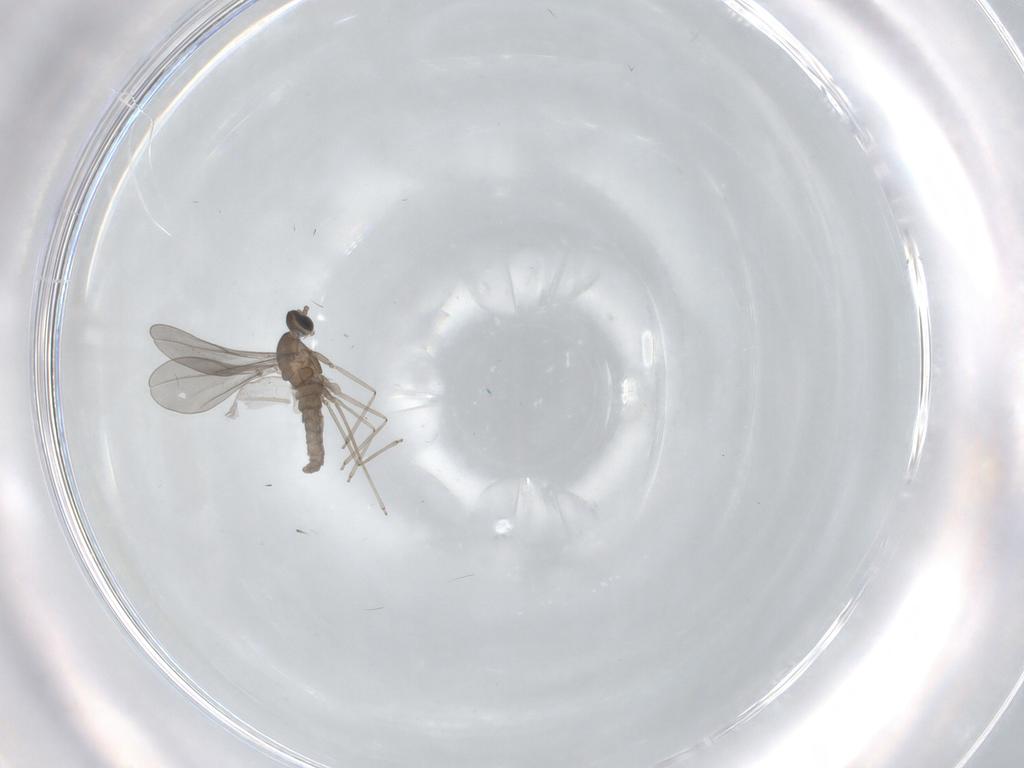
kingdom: Animalia
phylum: Arthropoda
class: Insecta
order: Diptera
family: Cecidomyiidae
